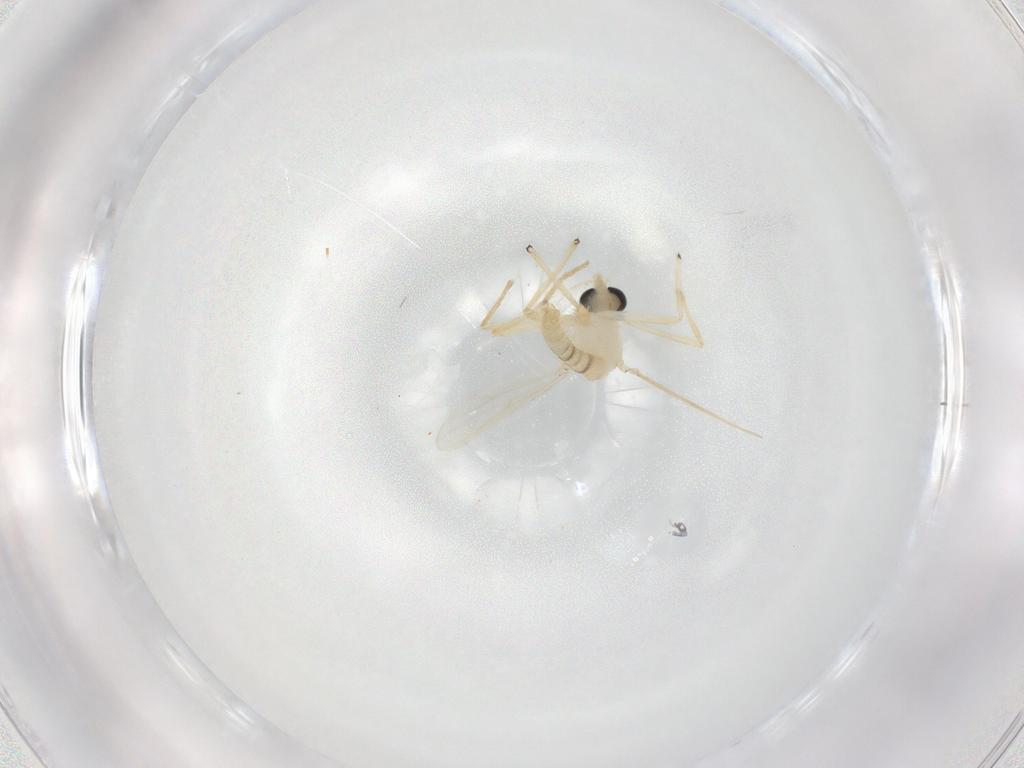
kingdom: Animalia
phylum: Arthropoda
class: Insecta
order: Diptera
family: Chironomidae
